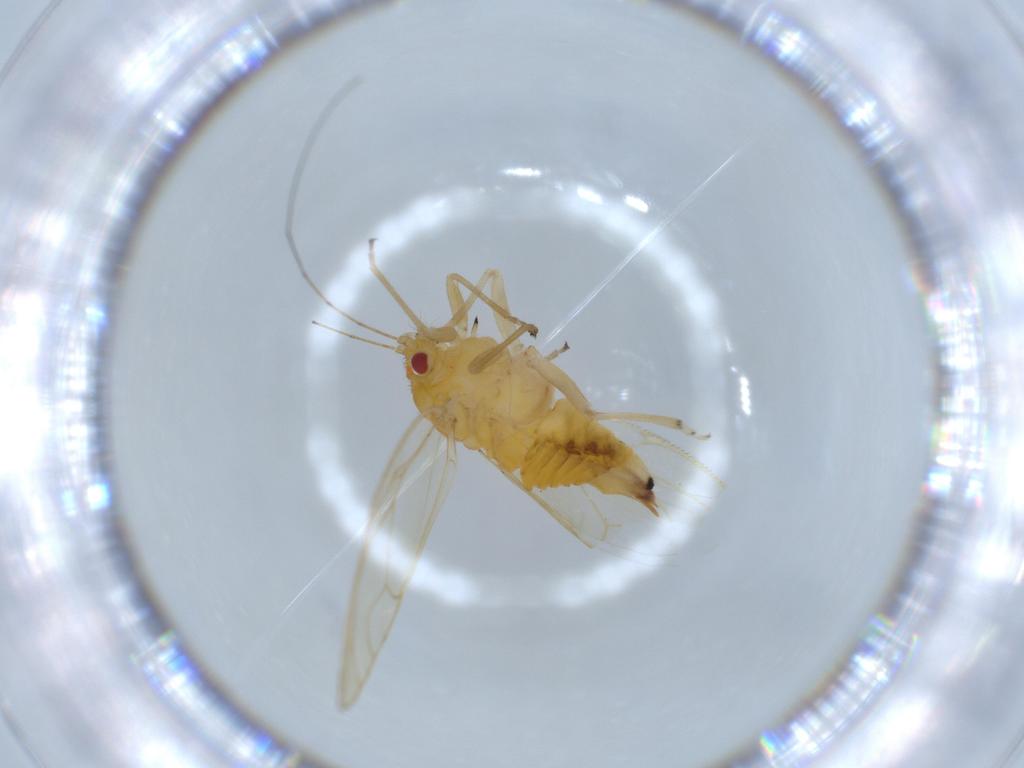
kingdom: Animalia
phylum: Arthropoda
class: Insecta
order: Hemiptera
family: Psyllidae
